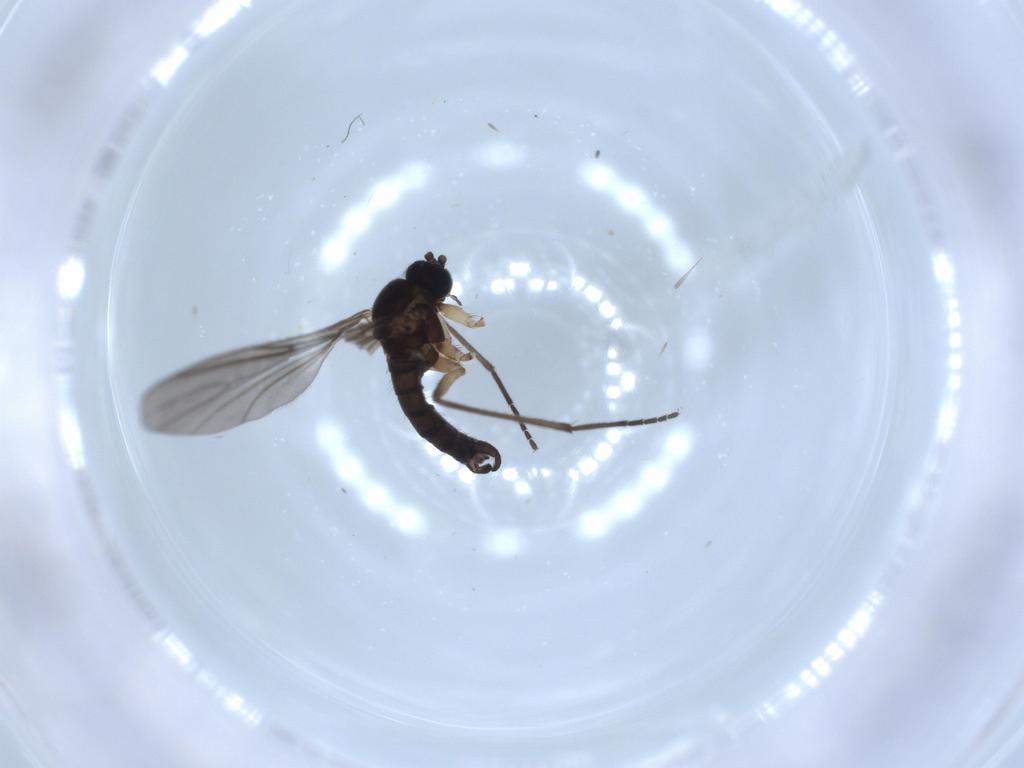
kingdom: Animalia
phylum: Arthropoda
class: Insecta
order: Diptera
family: Sciaridae
